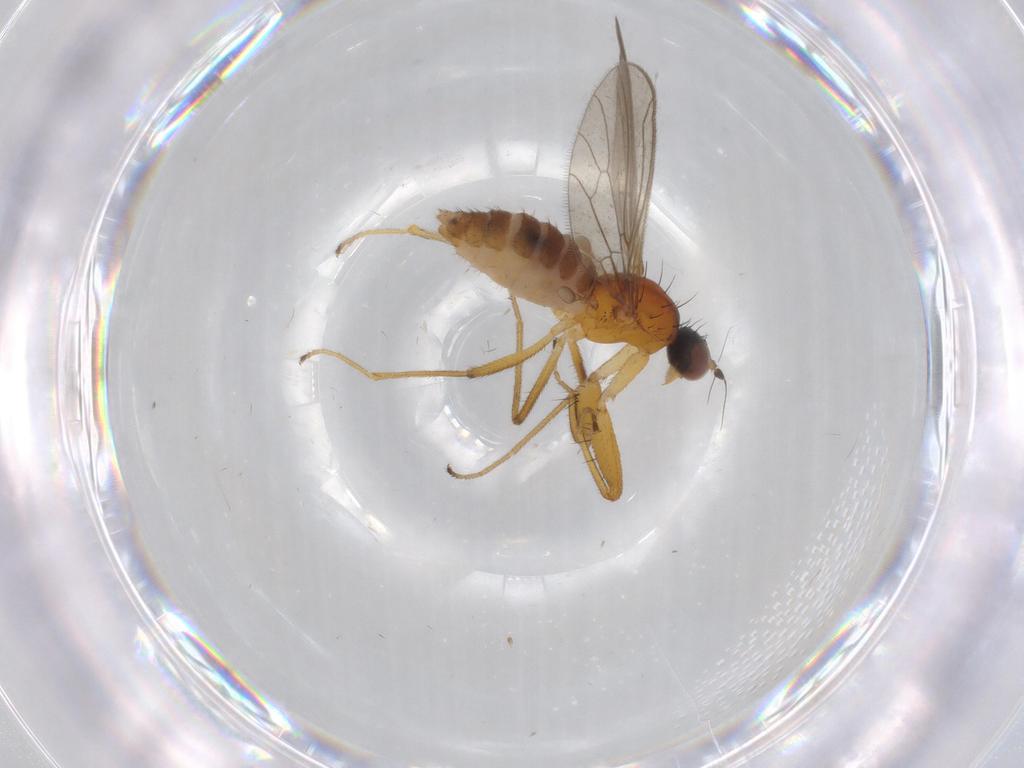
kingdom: Animalia
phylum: Arthropoda
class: Insecta
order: Diptera
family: Empididae
